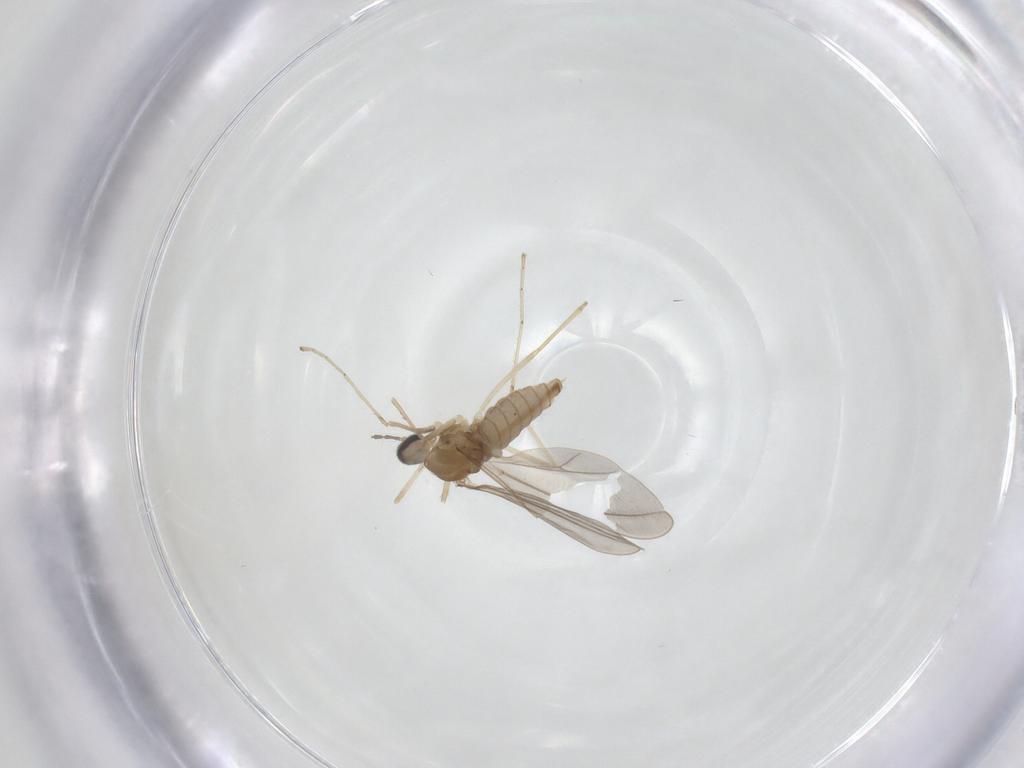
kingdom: Animalia
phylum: Arthropoda
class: Insecta
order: Diptera
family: Cecidomyiidae
